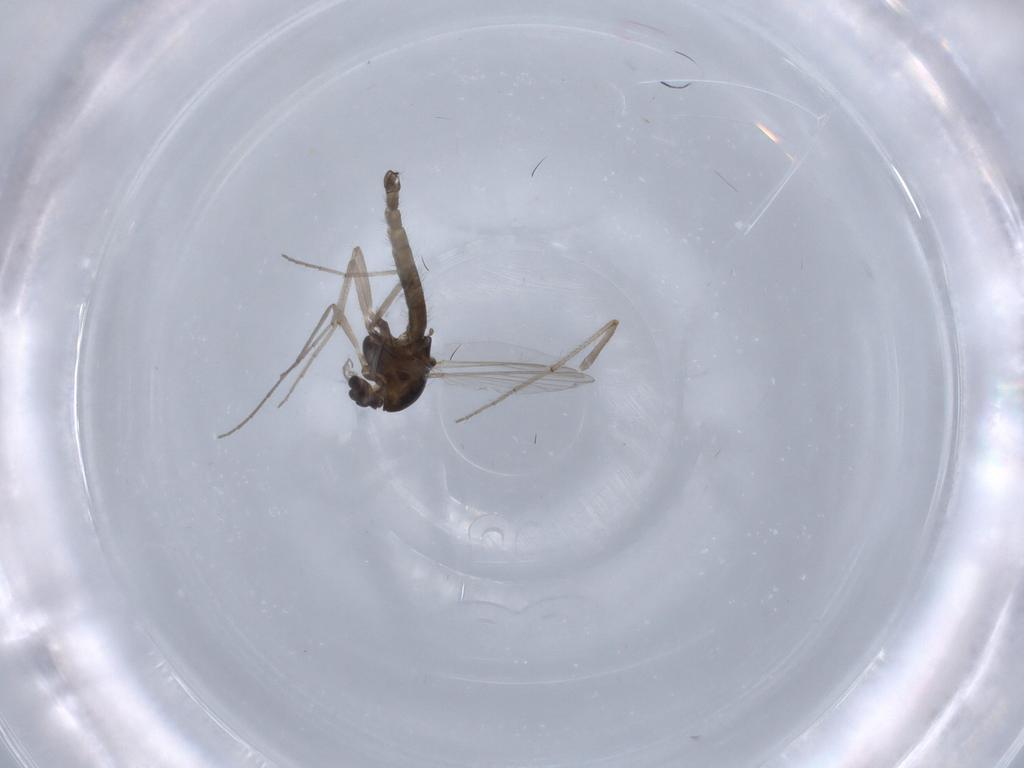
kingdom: Animalia
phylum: Arthropoda
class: Insecta
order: Diptera
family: Chironomidae
